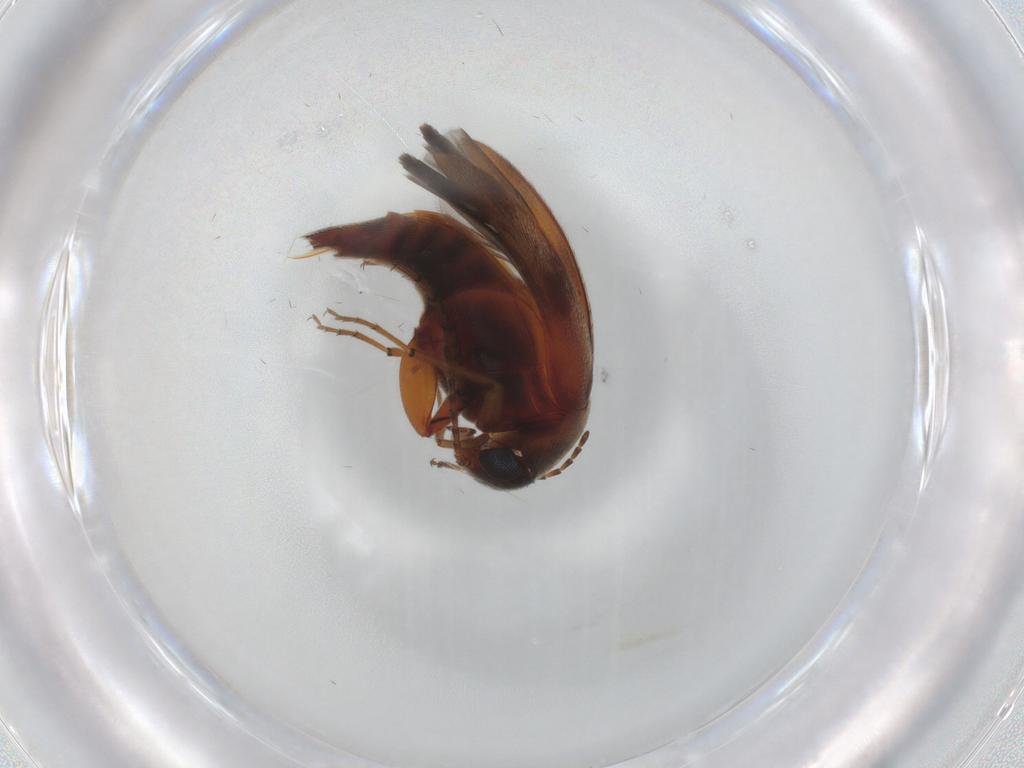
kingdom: Animalia
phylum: Arthropoda
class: Insecta
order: Coleoptera
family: Mordellidae
